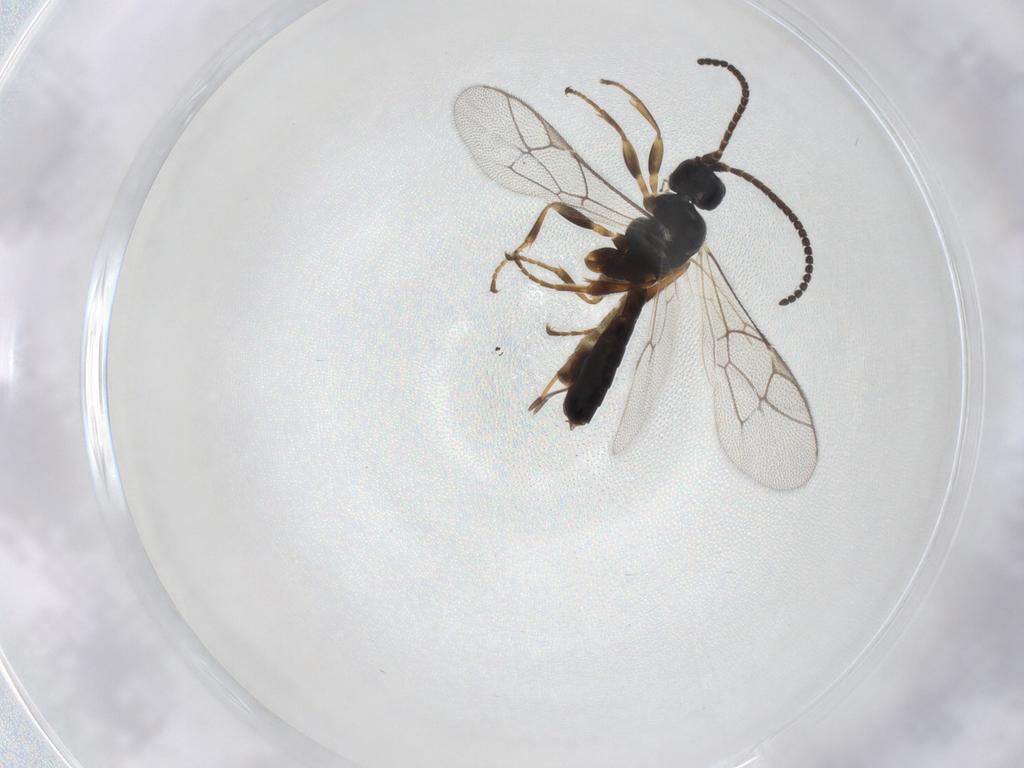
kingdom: Animalia
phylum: Arthropoda
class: Insecta
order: Hymenoptera
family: Ichneumonidae
